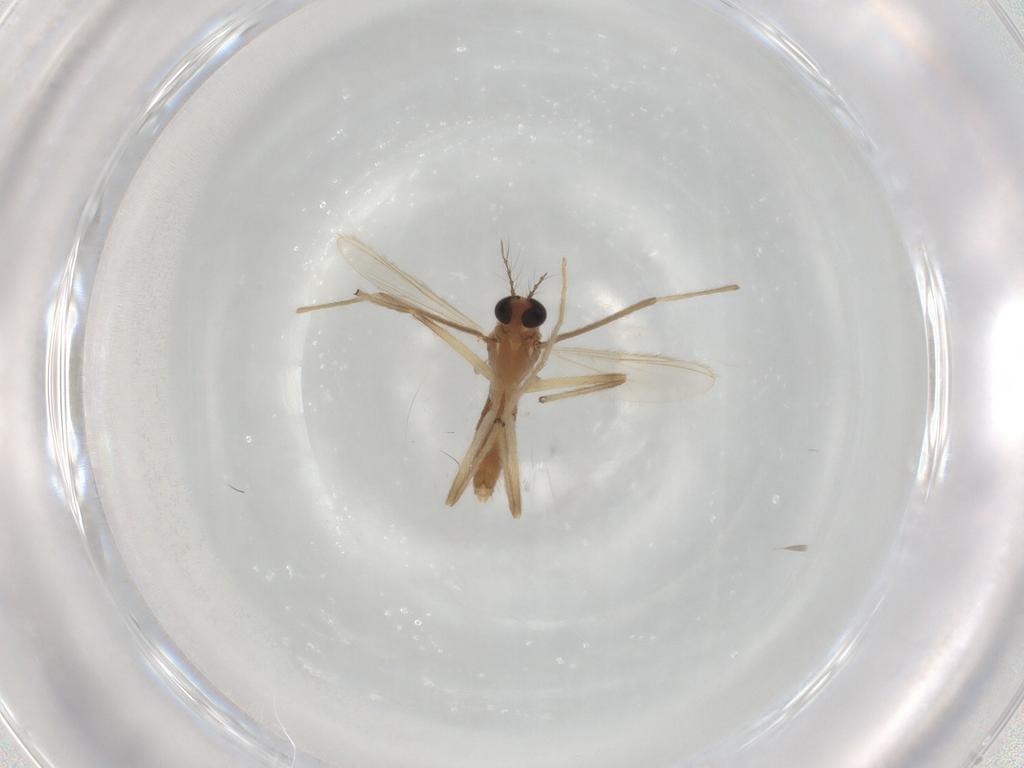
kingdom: Animalia
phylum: Arthropoda
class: Insecta
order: Diptera
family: Chironomidae
